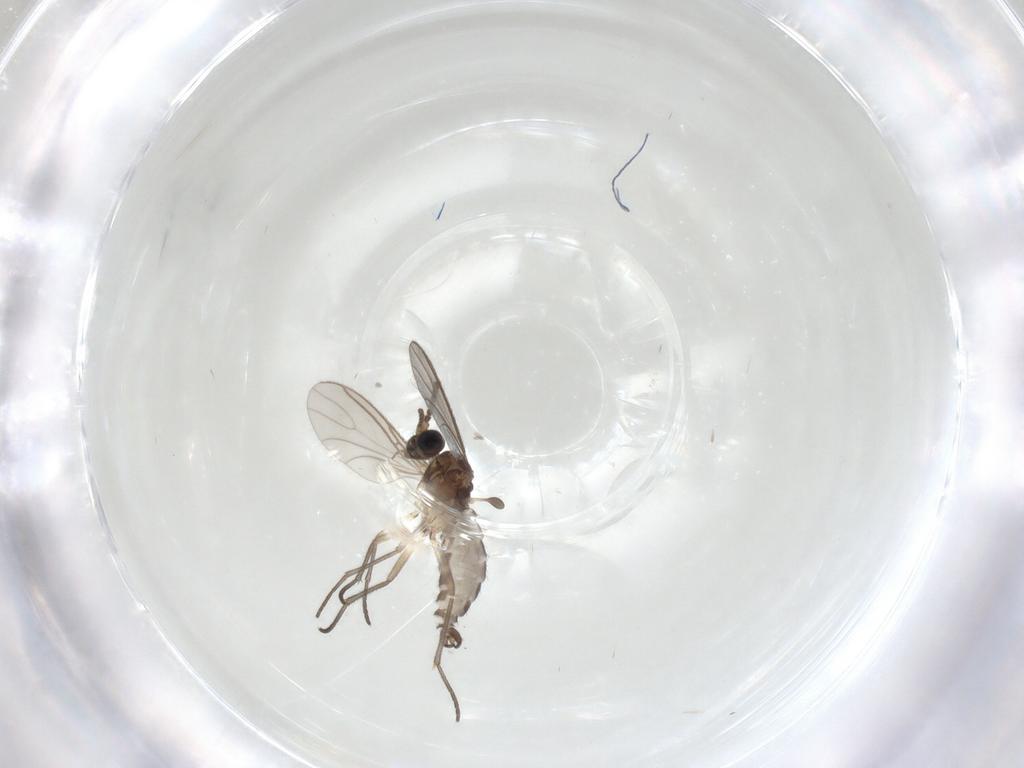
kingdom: Animalia
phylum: Arthropoda
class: Insecta
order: Diptera
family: Sciaridae
